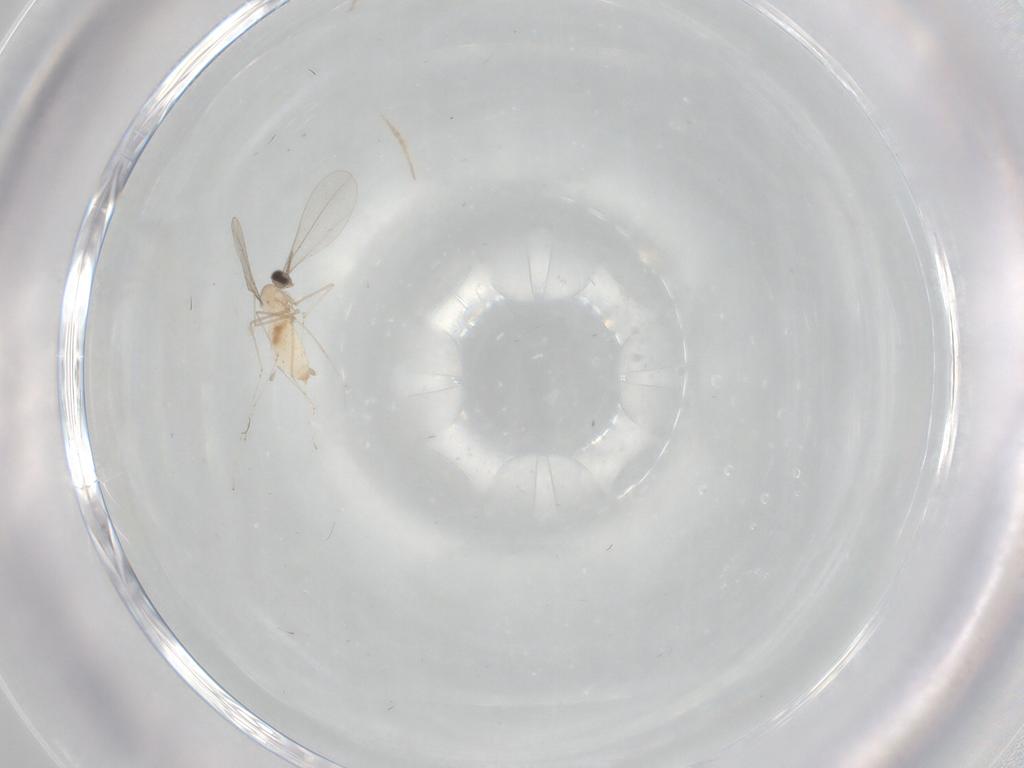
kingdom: Animalia
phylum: Arthropoda
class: Insecta
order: Diptera
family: Cecidomyiidae
